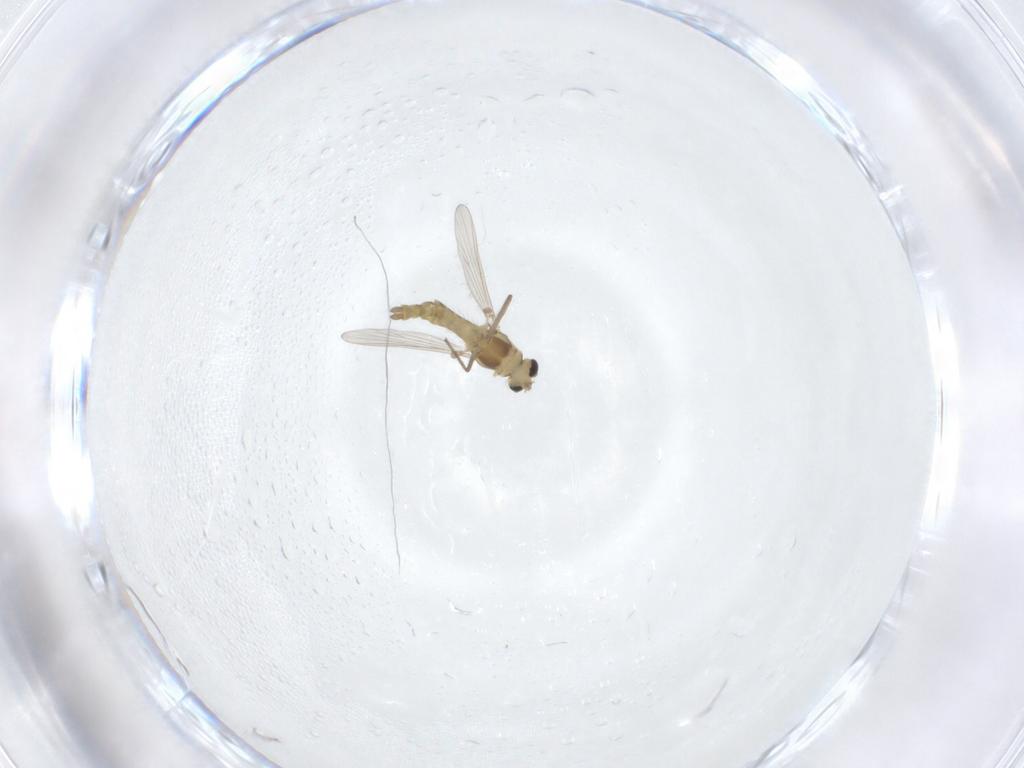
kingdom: Animalia
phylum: Arthropoda
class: Insecta
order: Diptera
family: Chironomidae
